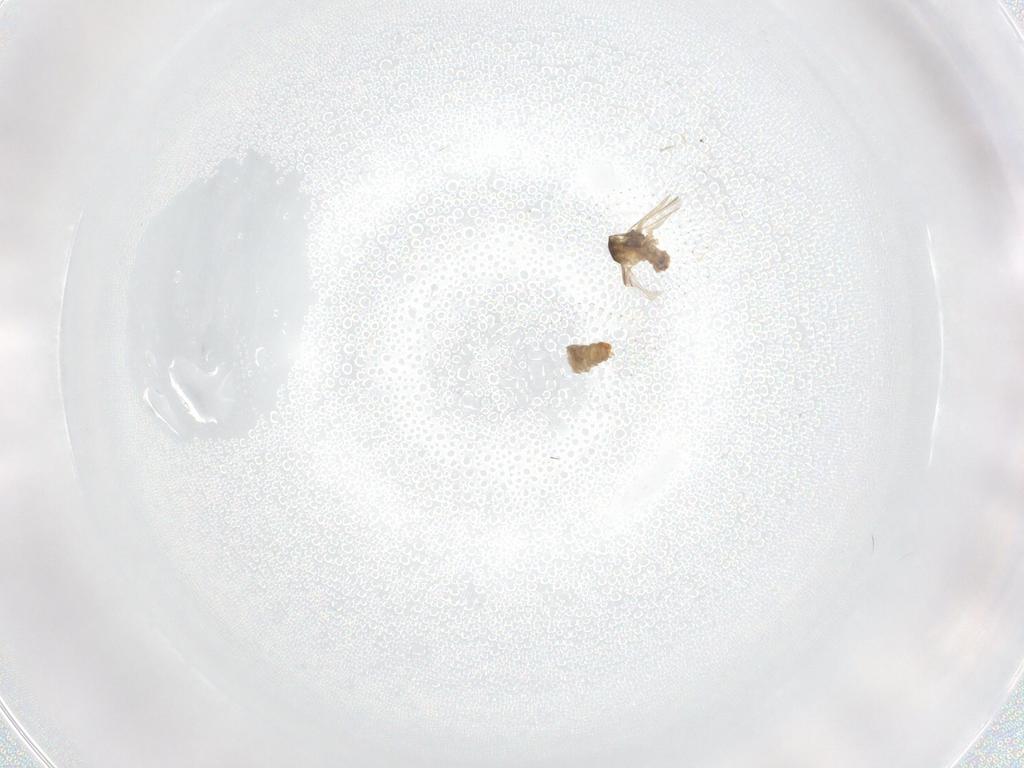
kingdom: Animalia
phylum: Arthropoda
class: Insecta
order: Diptera
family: Cecidomyiidae
